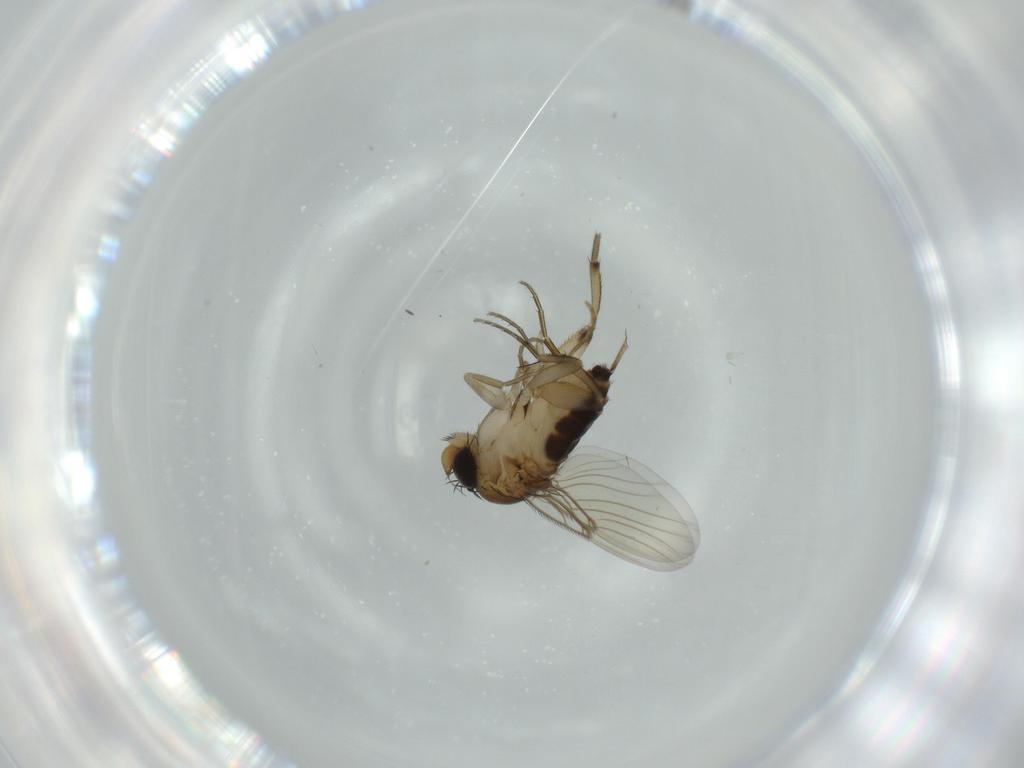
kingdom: Animalia
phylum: Arthropoda
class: Insecta
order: Diptera
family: Psychodidae
